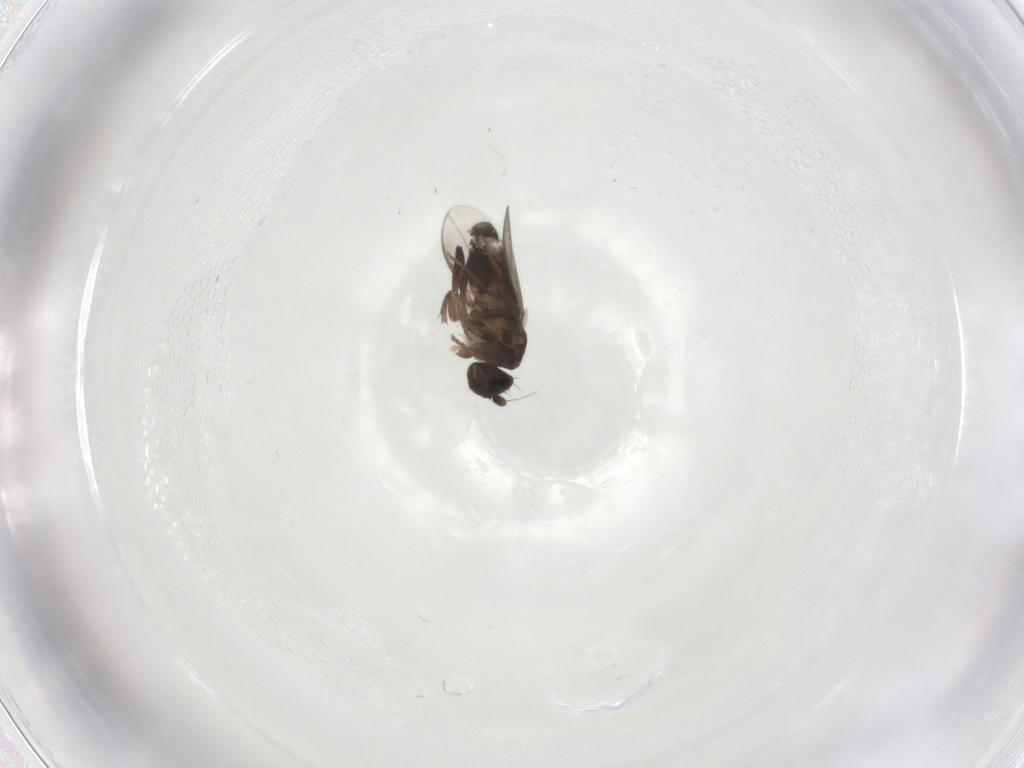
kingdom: Animalia
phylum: Arthropoda
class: Insecta
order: Diptera
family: Sphaeroceridae
